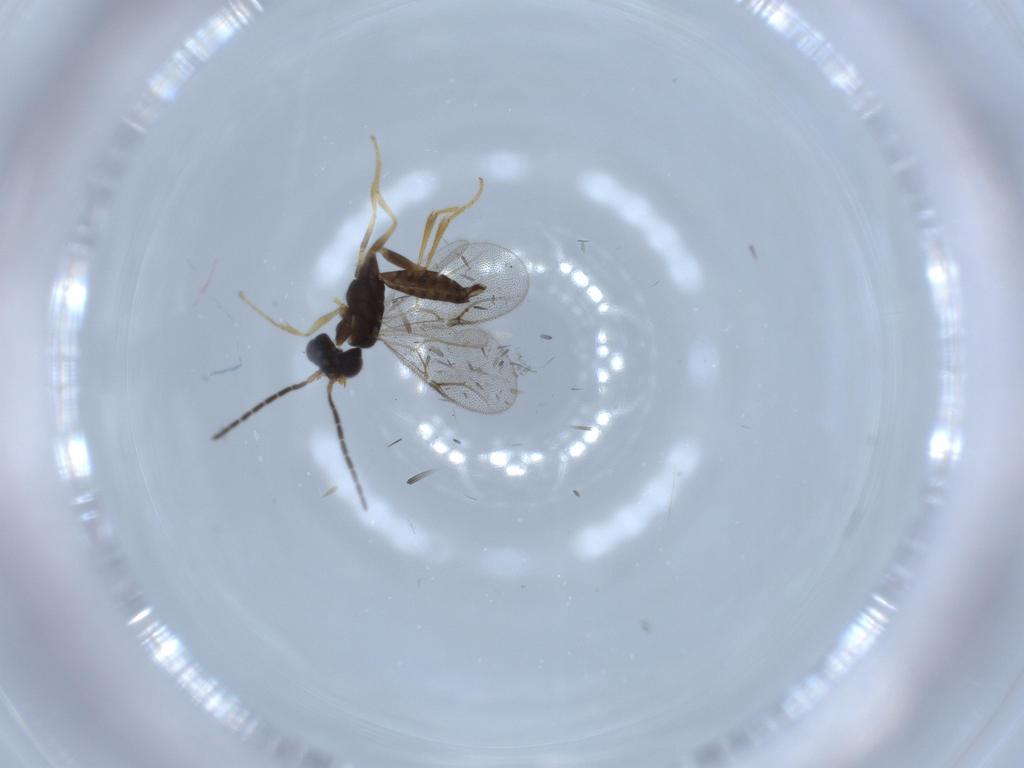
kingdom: Animalia
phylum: Arthropoda
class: Insecta
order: Hymenoptera
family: Dryinidae
